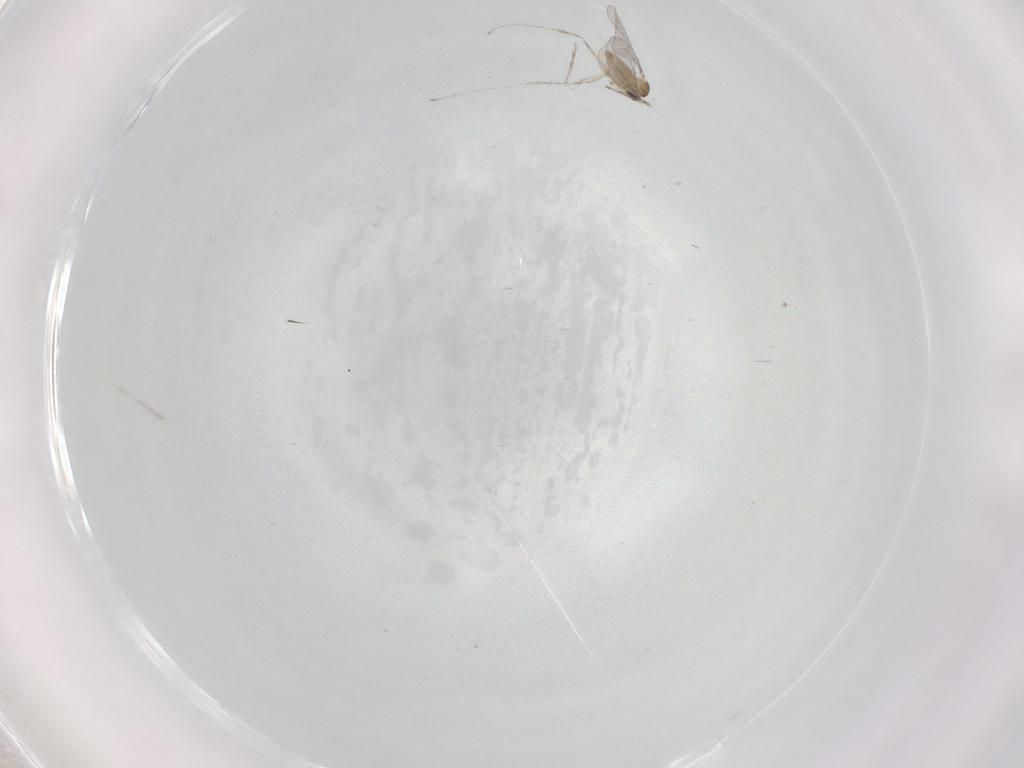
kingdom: Animalia
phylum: Arthropoda
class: Insecta
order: Diptera
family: Cecidomyiidae
